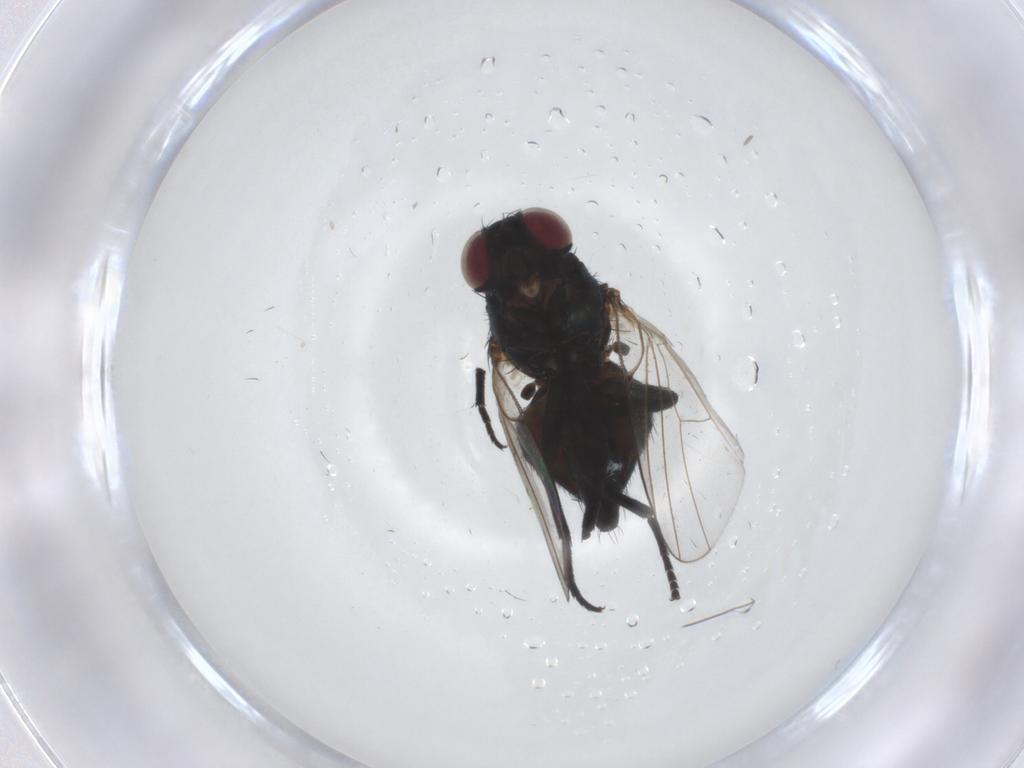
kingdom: Animalia
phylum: Arthropoda
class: Insecta
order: Diptera
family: Agromyzidae
